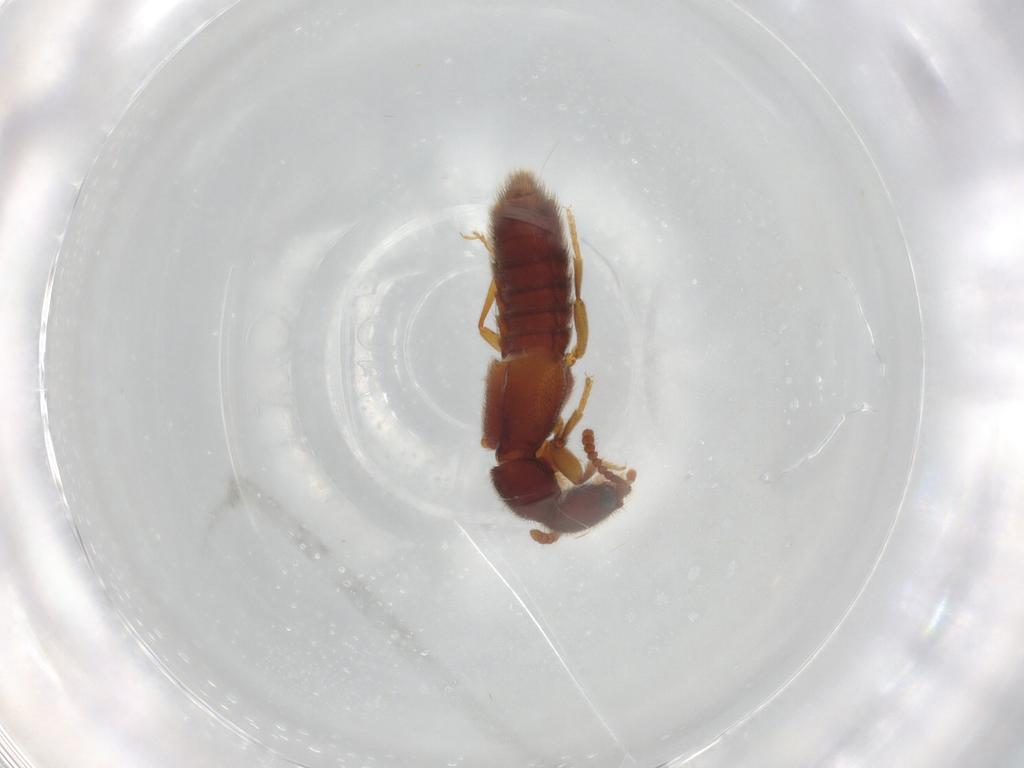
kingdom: Animalia
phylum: Arthropoda
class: Insecta
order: Coleoptera
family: Staphylinidae
